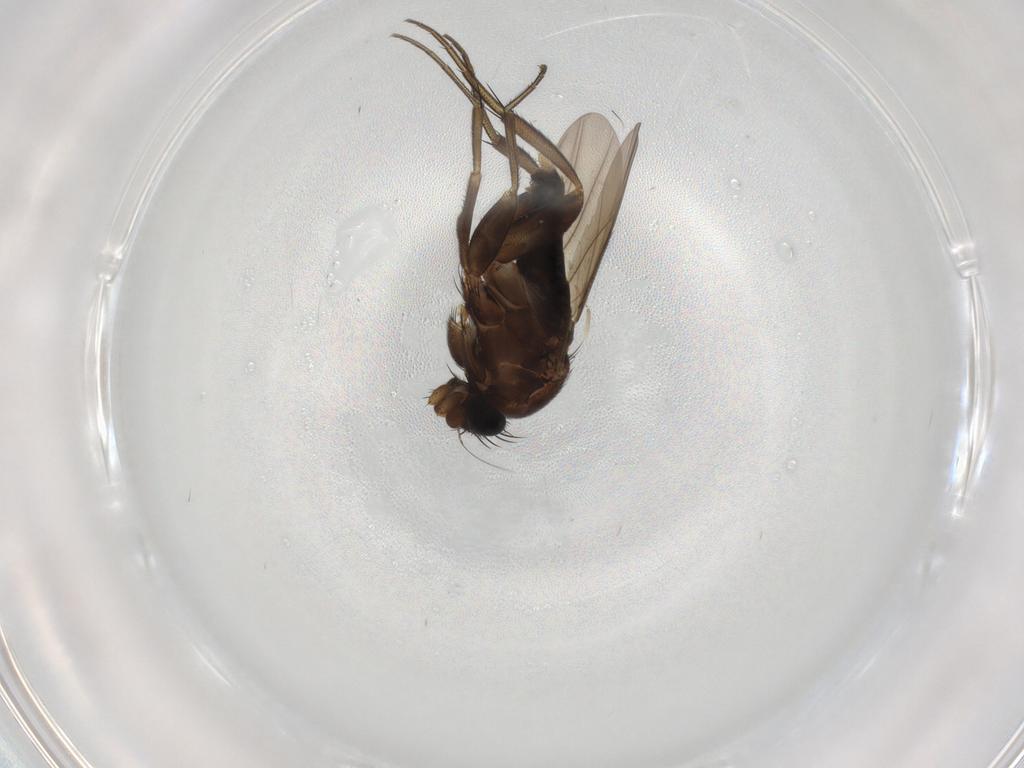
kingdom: Animalia
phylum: Arthropoda
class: Insecta
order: Diptera
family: Phoridae
